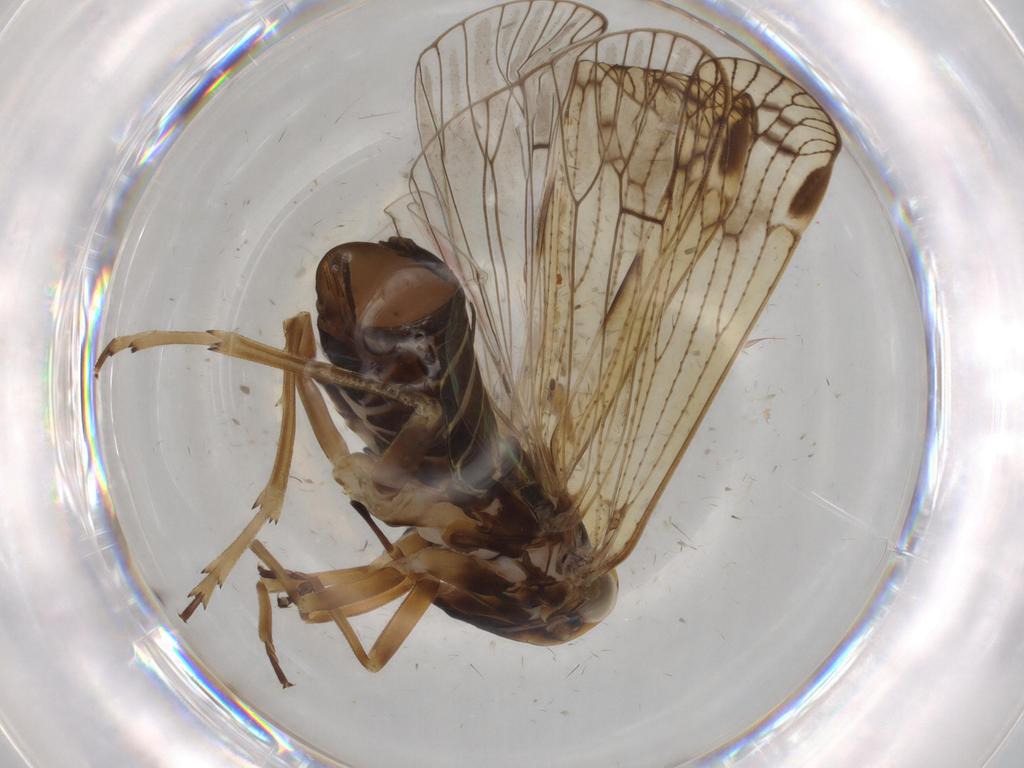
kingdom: Animalia
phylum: Arthropoda
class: Insecta
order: Hemiptera
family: Cixiidae
